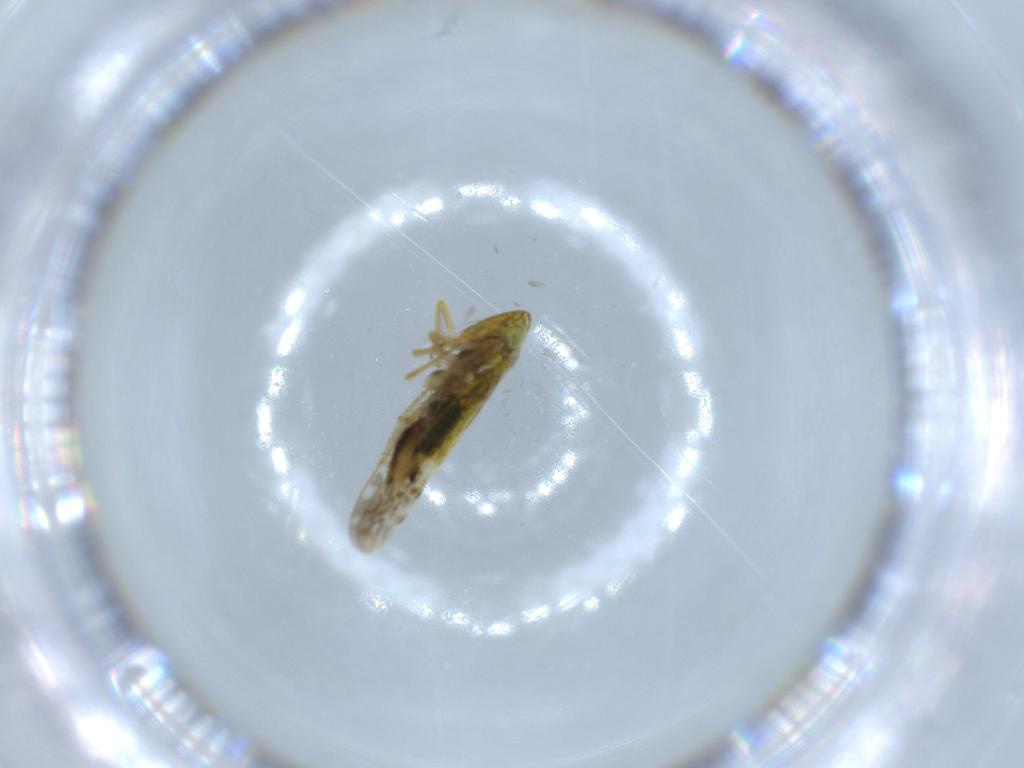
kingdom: Animalia
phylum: Arthropoda
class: Insecta
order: Hemiptera
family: Cicadellidae
